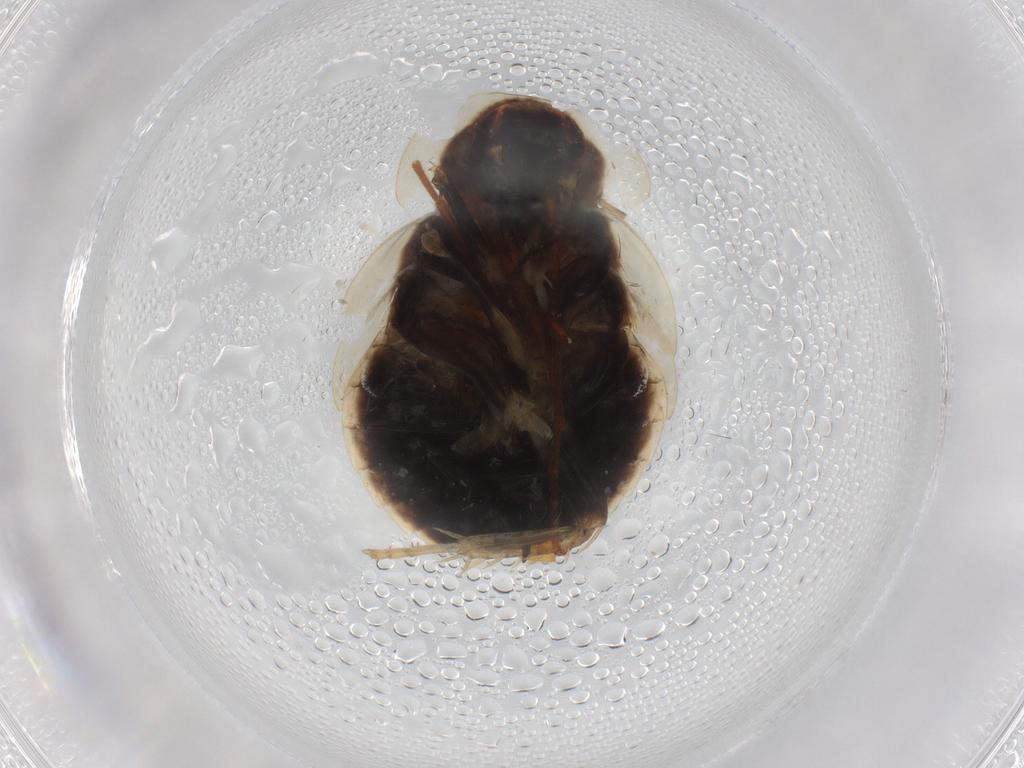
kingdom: Animalia
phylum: Arthropoda
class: Insecta
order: Blattodea
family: Ectobiidae
